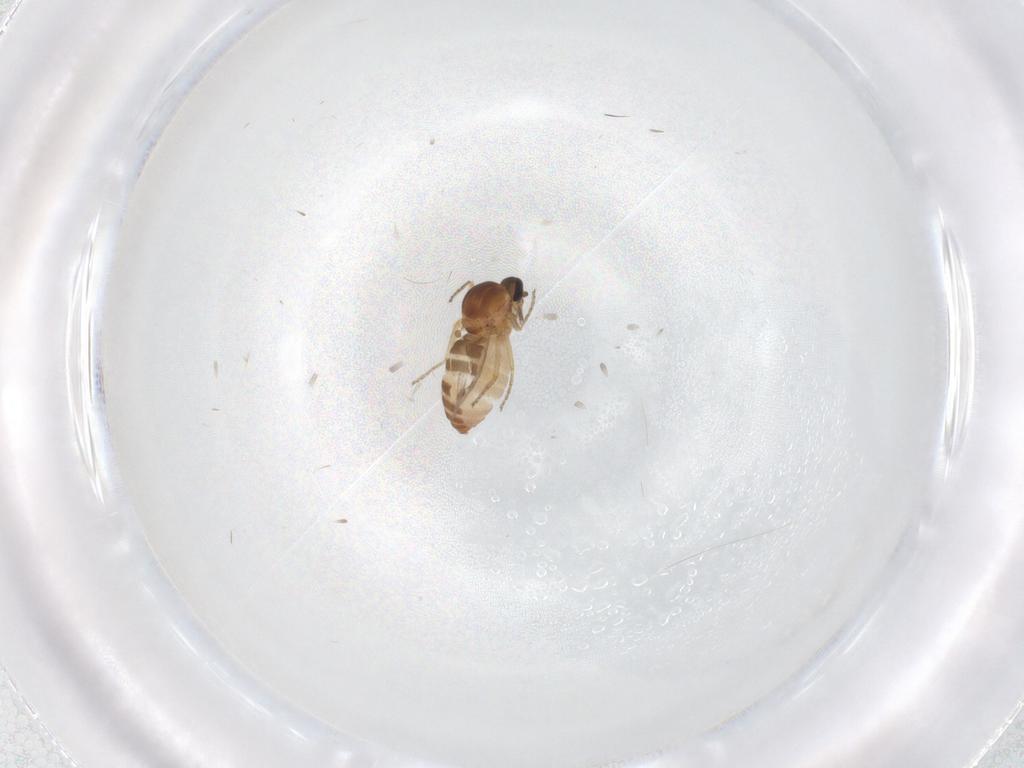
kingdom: Animalia
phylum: Arthropoda
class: Insecta
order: Diptera
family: Ceratopogonidae
